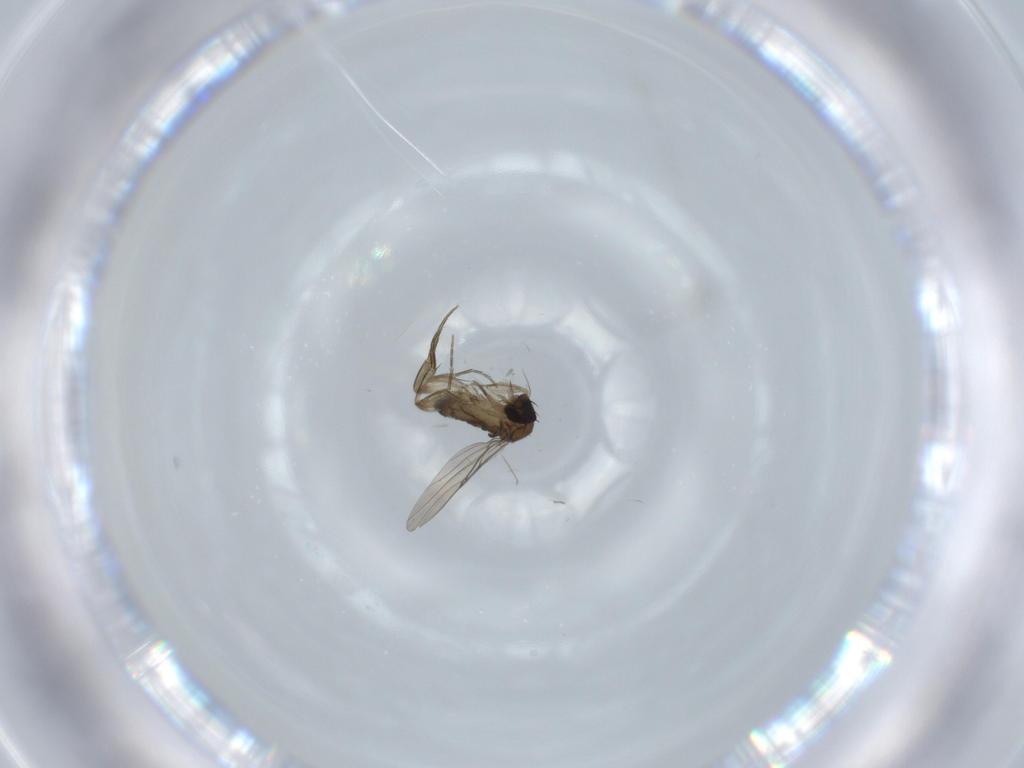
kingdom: Animalia
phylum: Arthropoda
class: Insecta
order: Diptera
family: Phoridae
